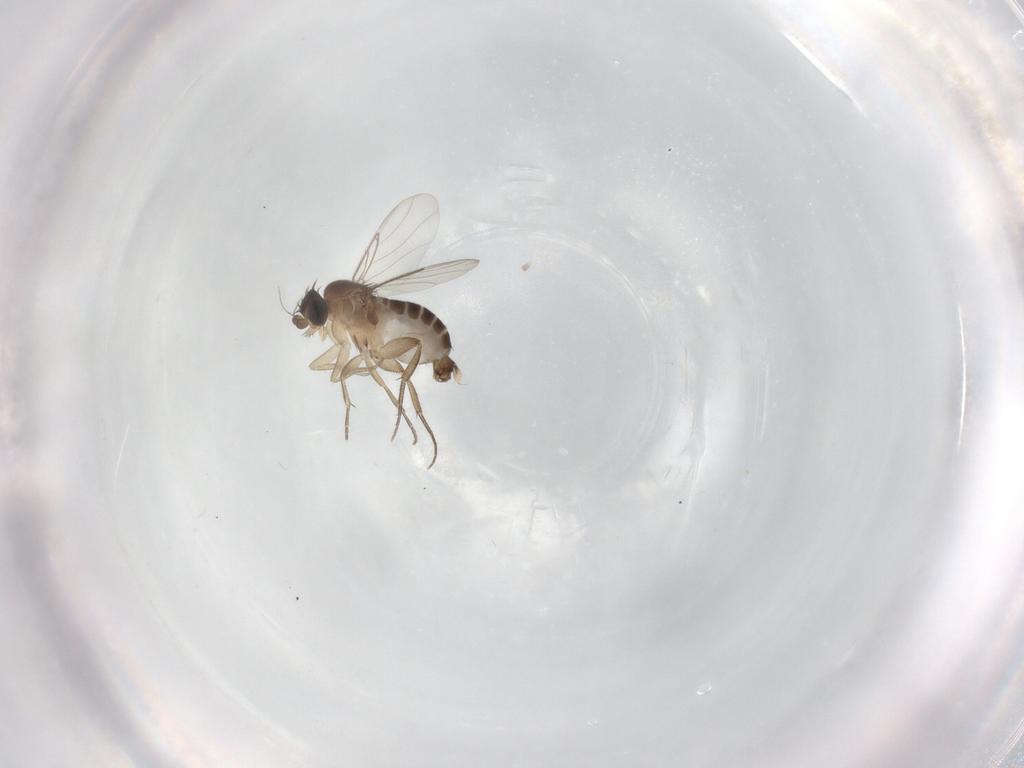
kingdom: Animalia
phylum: Arthropoda
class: Insecta
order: Diptera
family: Phoridae
